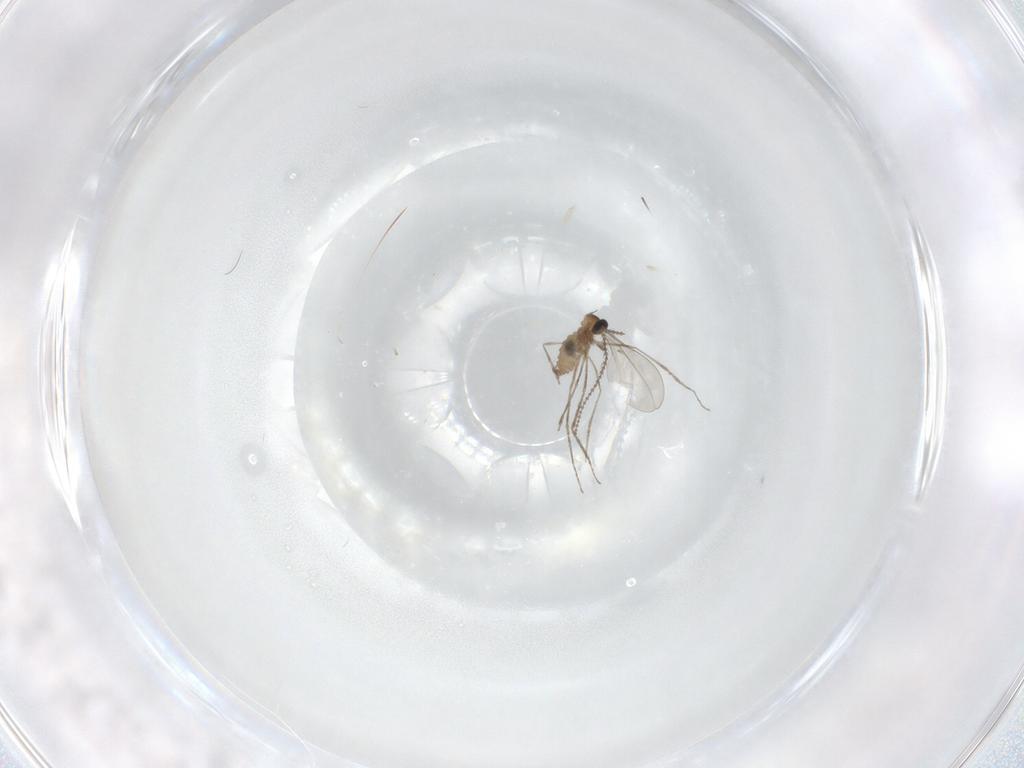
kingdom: Animalia
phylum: Arthropoda
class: Insecta
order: Diptera
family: Cecidomyiidae
